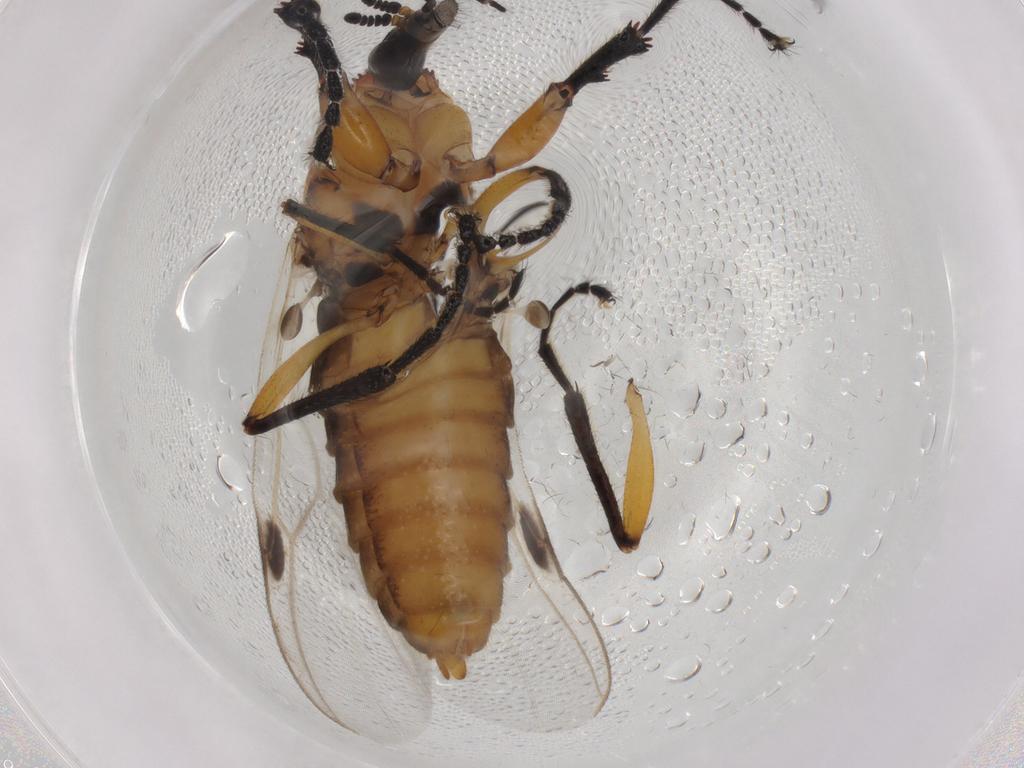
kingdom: Animalia
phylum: Arthropoda
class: Insecta
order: Diptera
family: Bibionidae
